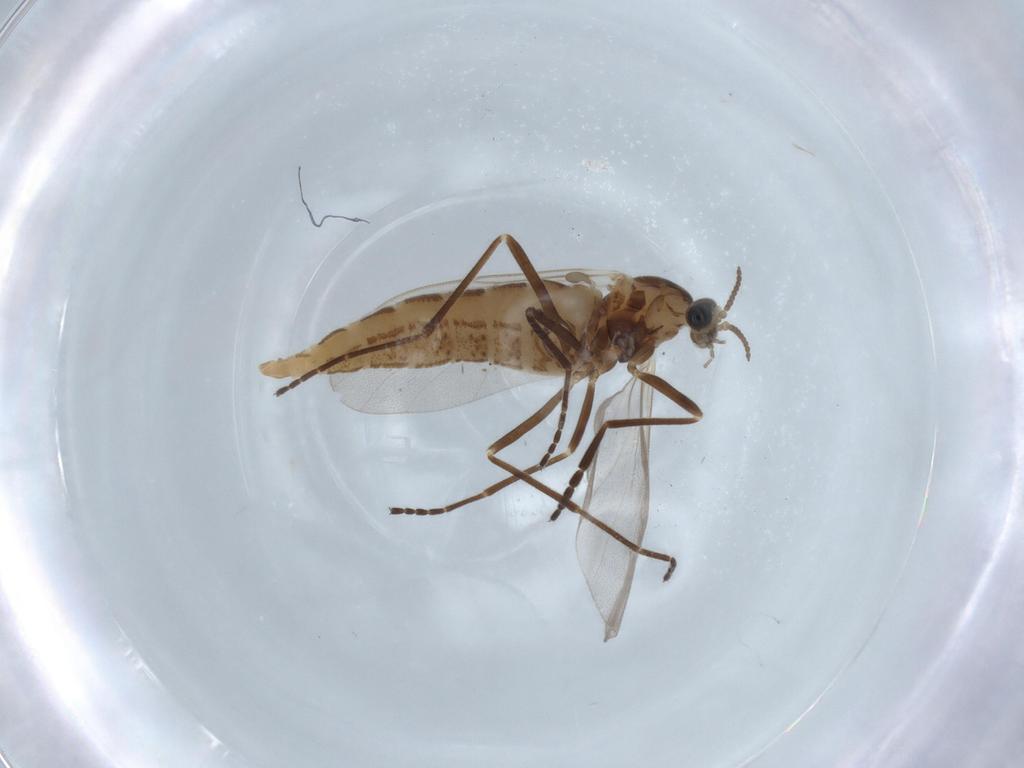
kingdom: Animalia
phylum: Arthropoda
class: Insecta
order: Diptera
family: Cecidomyiidae
